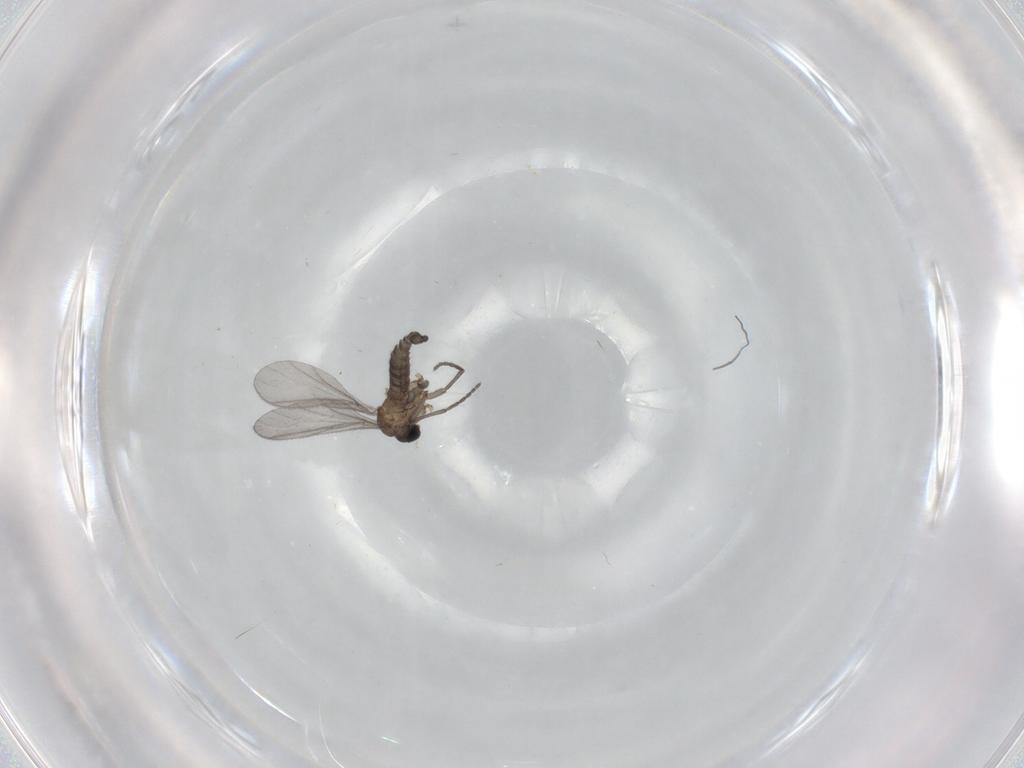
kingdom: Animalia
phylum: Arthropoda
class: Insecta
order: Diptera
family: Sciaridae
